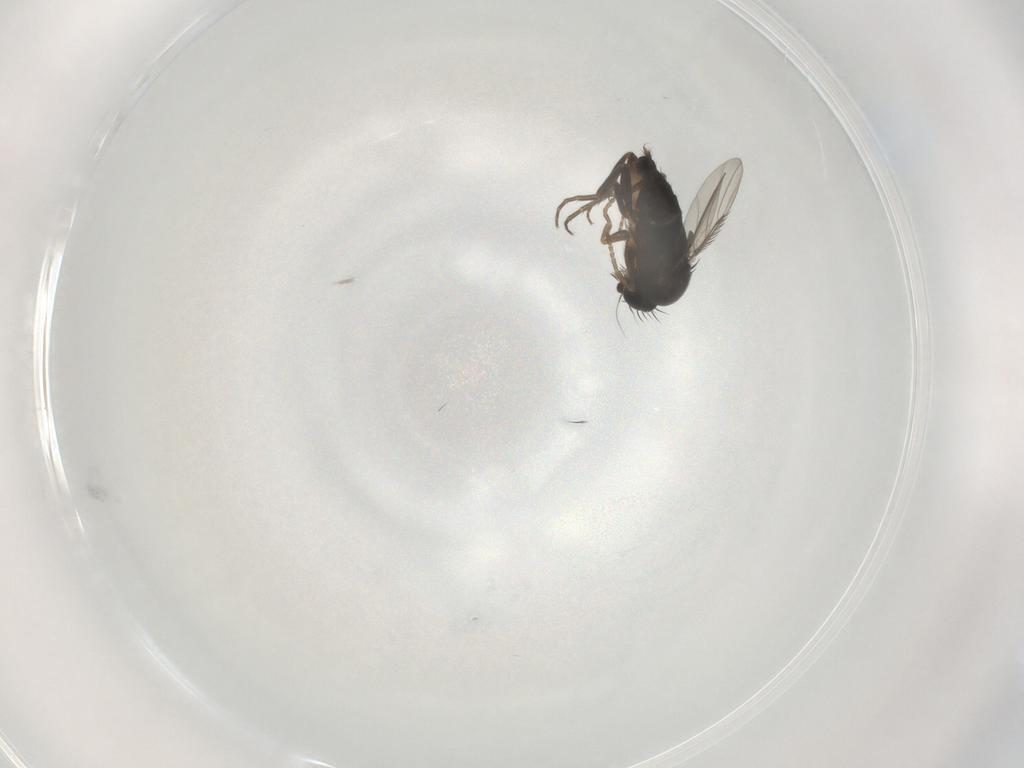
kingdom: Animalia
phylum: Arthropoda
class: Insecta
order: Diptera
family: Phoridae
